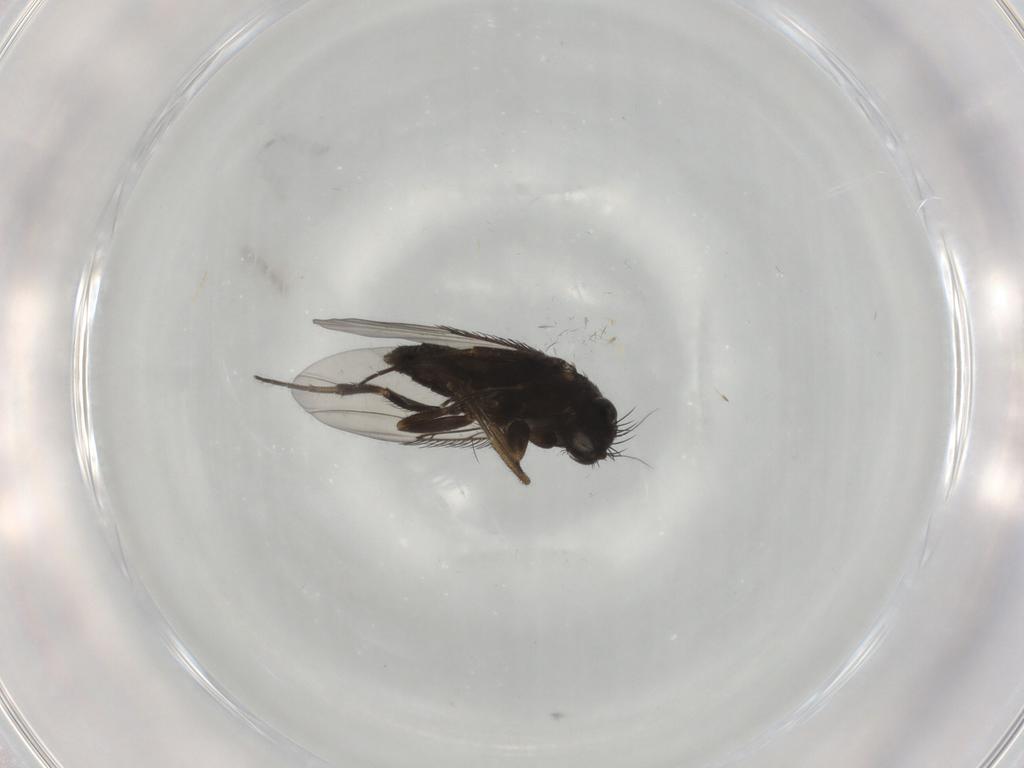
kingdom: Animalia
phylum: Arthropoda
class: Insecta
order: Diptera
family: Phoridae
